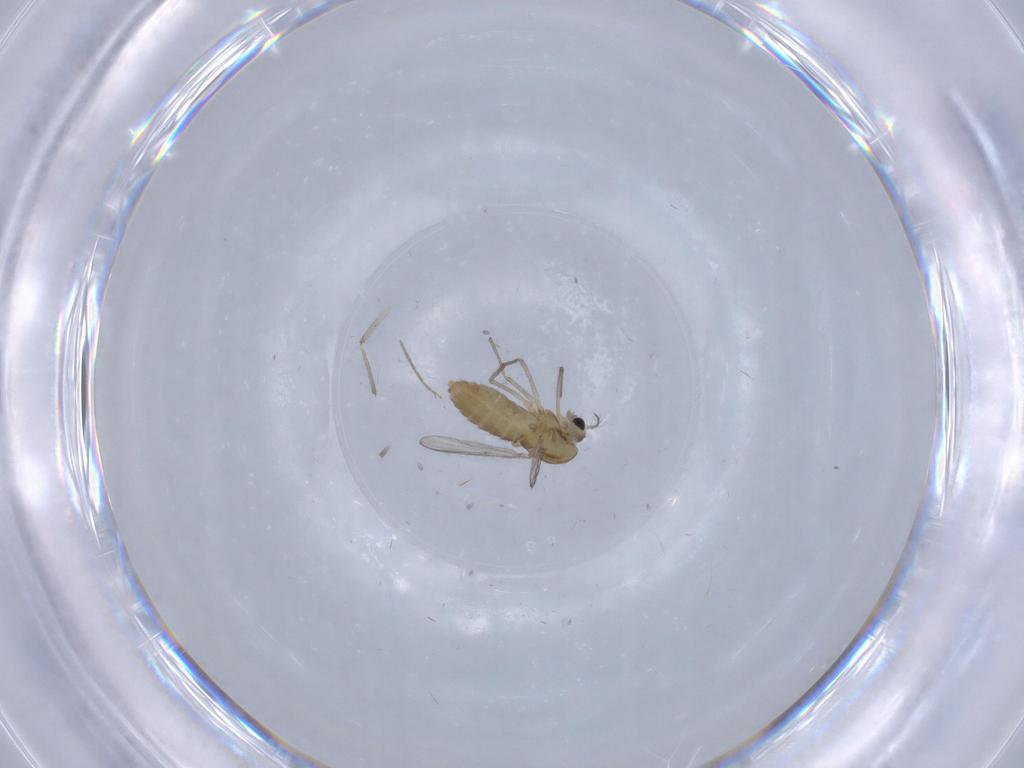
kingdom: Animalia
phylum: Arthropoda
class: Insecta
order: Diptera
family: Chironomidae
